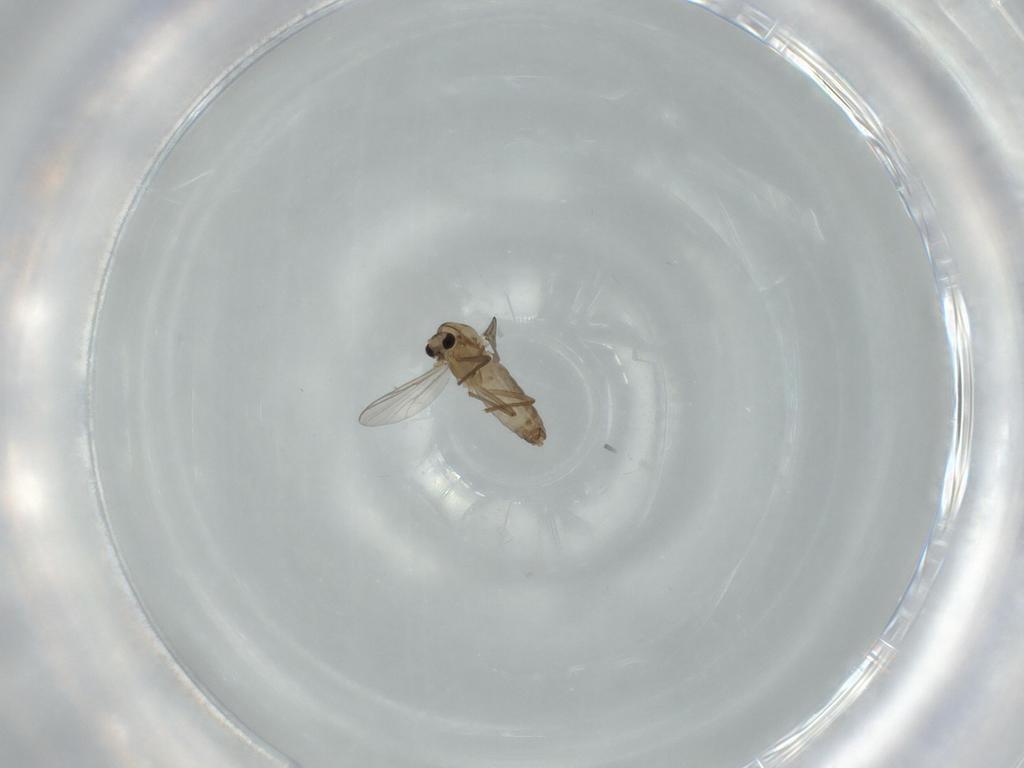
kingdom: Animalia
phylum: Arthropoda
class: Insecta
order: Diptera
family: Chironomidae
